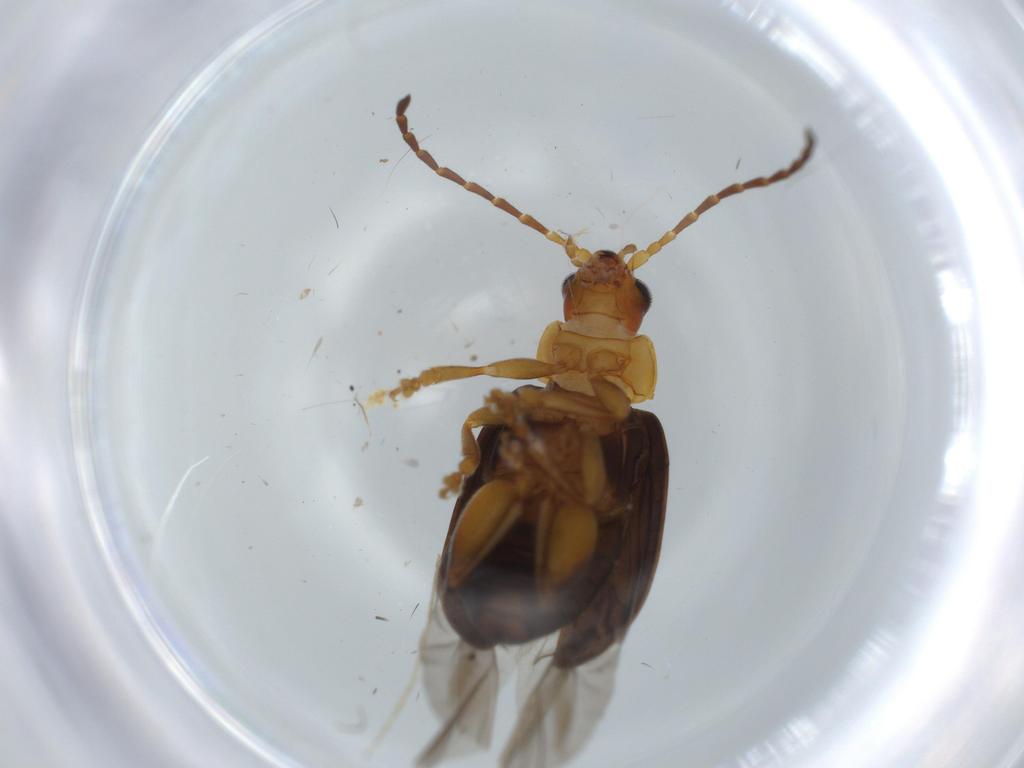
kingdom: Animalia
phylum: Arthropoda
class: Insecta
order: Coleoptera
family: Chrysomelidae
